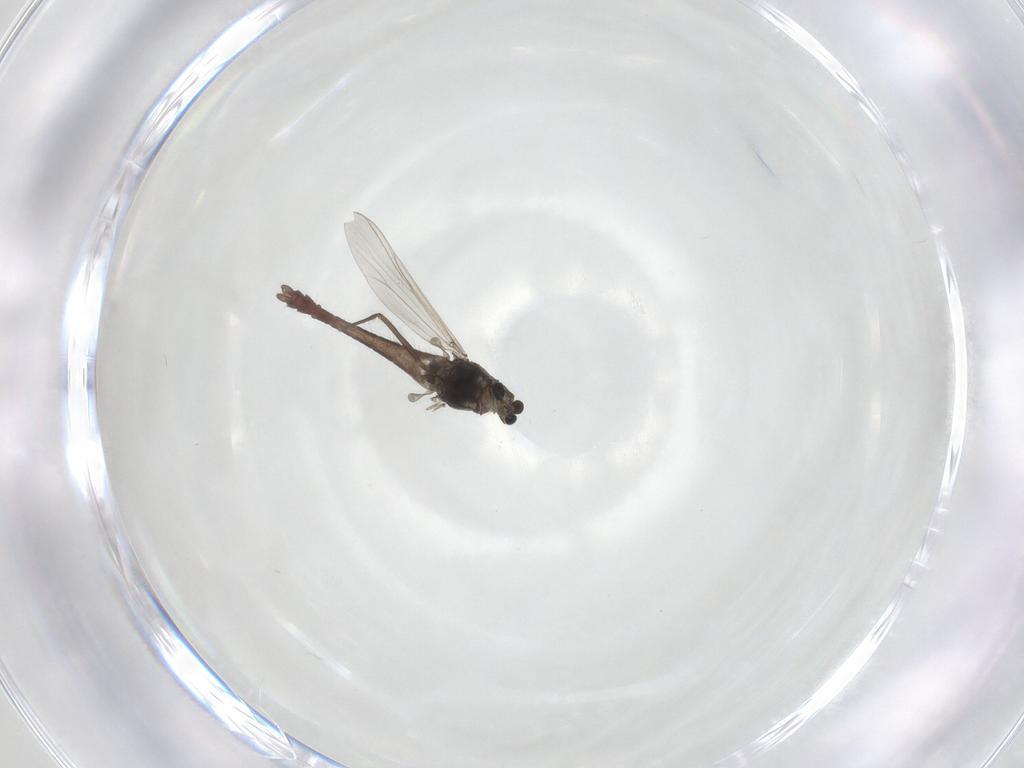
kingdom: Animalia
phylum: Arthropoda
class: Insecta
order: Diptera
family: Chironomidae
